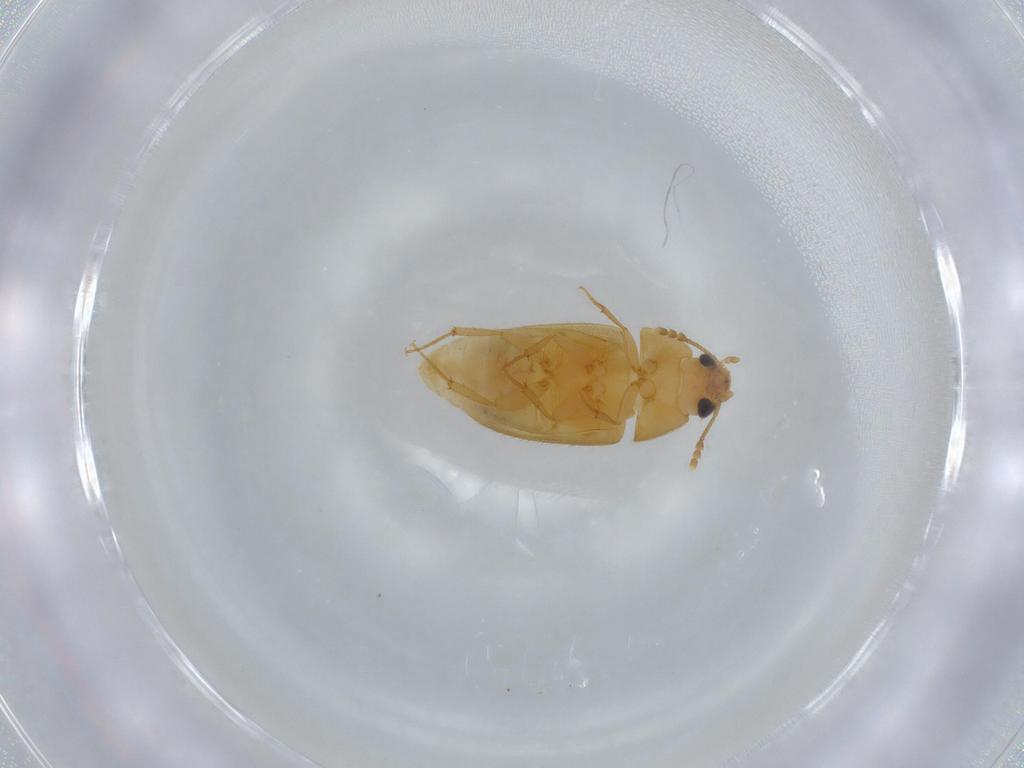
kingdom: Animalia
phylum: Arthropoda
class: Insecta
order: Coleoptera
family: Mycetophagidae
